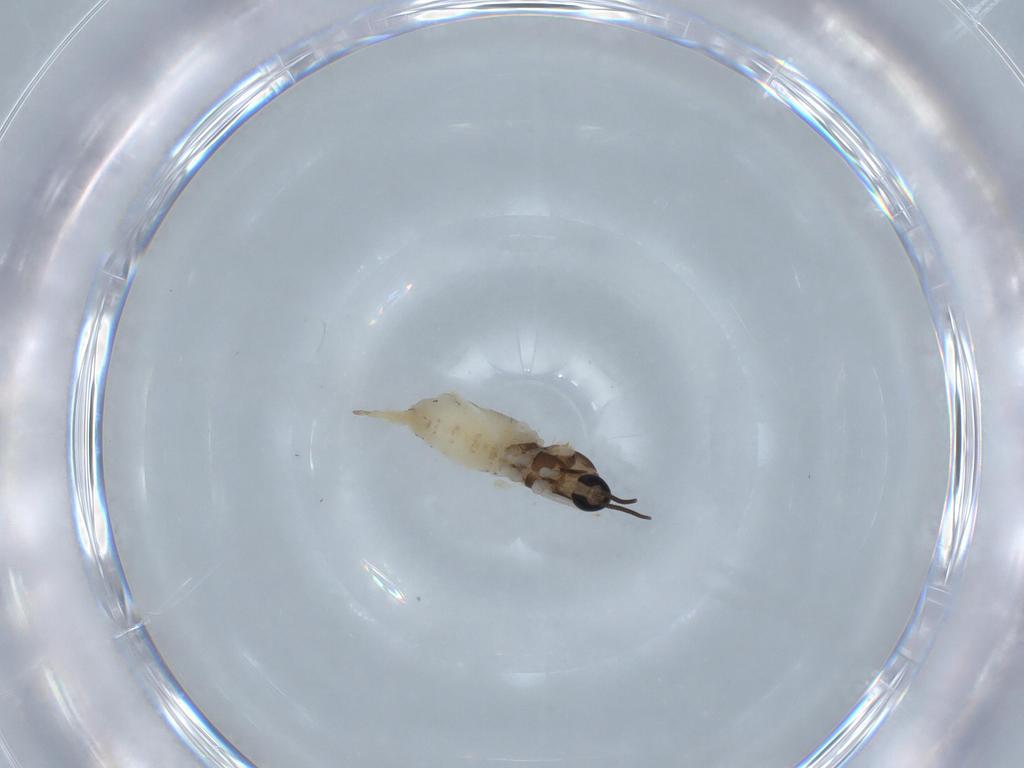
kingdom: Animalia
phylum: Arthropoda
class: Insecta
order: Diptera
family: Cecidomyiidae
